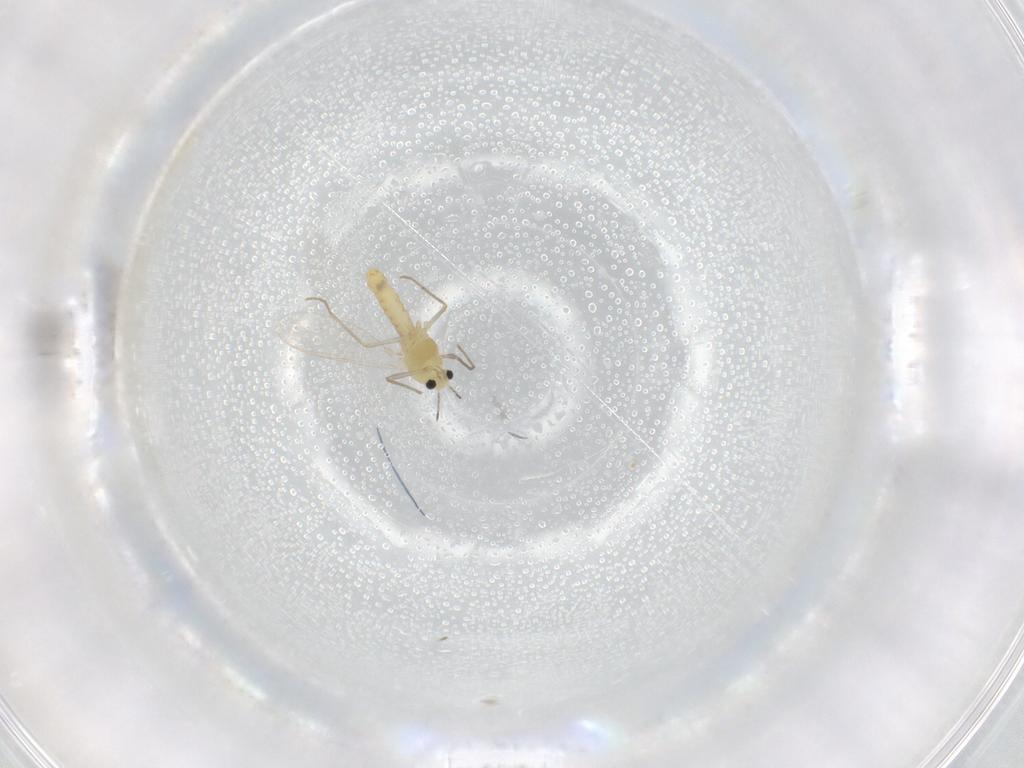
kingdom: Animalia
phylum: Arthropoda
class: Insecta
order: Diptera
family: Chironomidae
